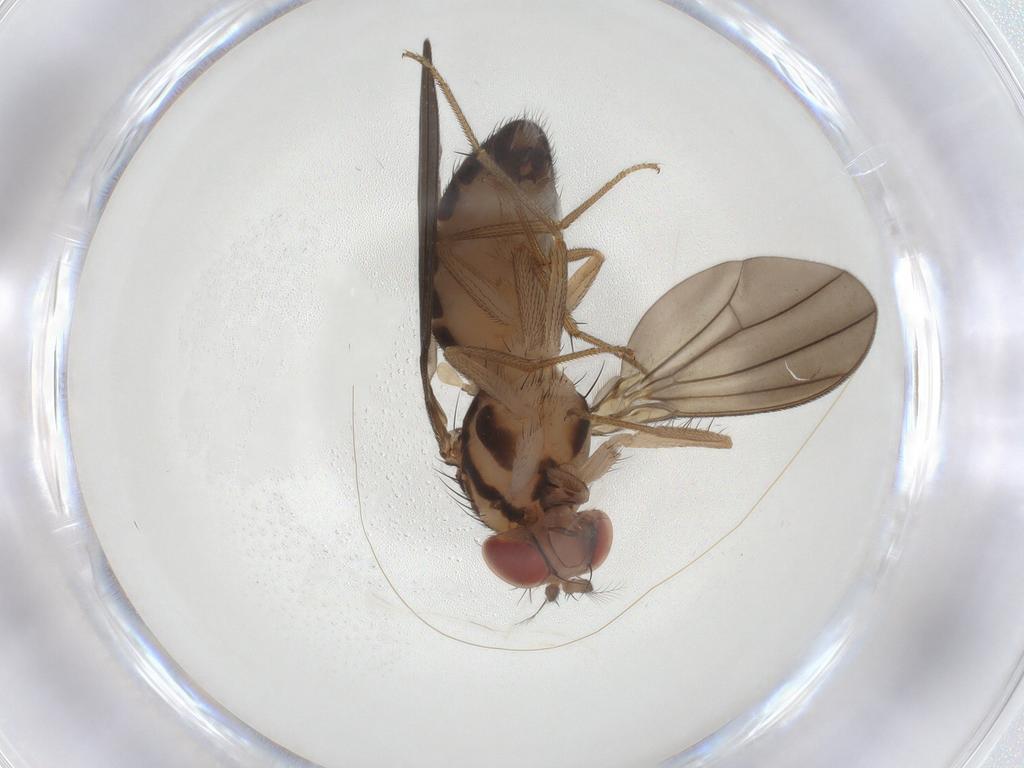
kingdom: Animalia
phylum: Arthropoda
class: Insecta
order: Diptera
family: Drosophilidae
